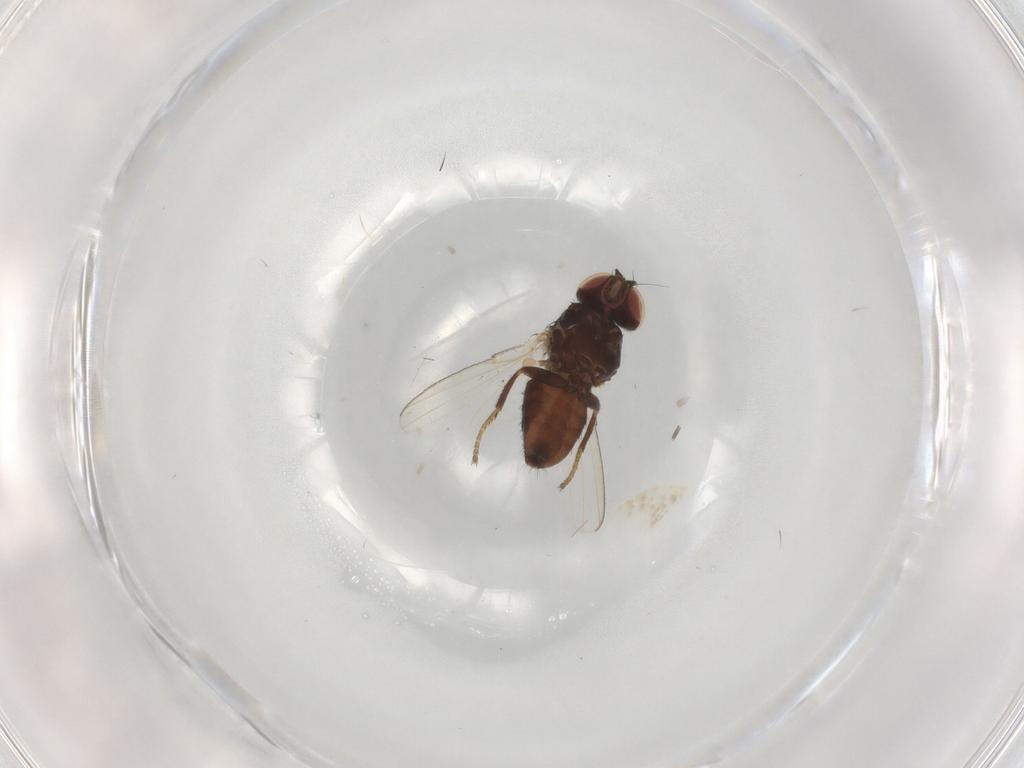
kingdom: Animalia
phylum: Arthropoda
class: Insecta
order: Diptera
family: Milichiidae
